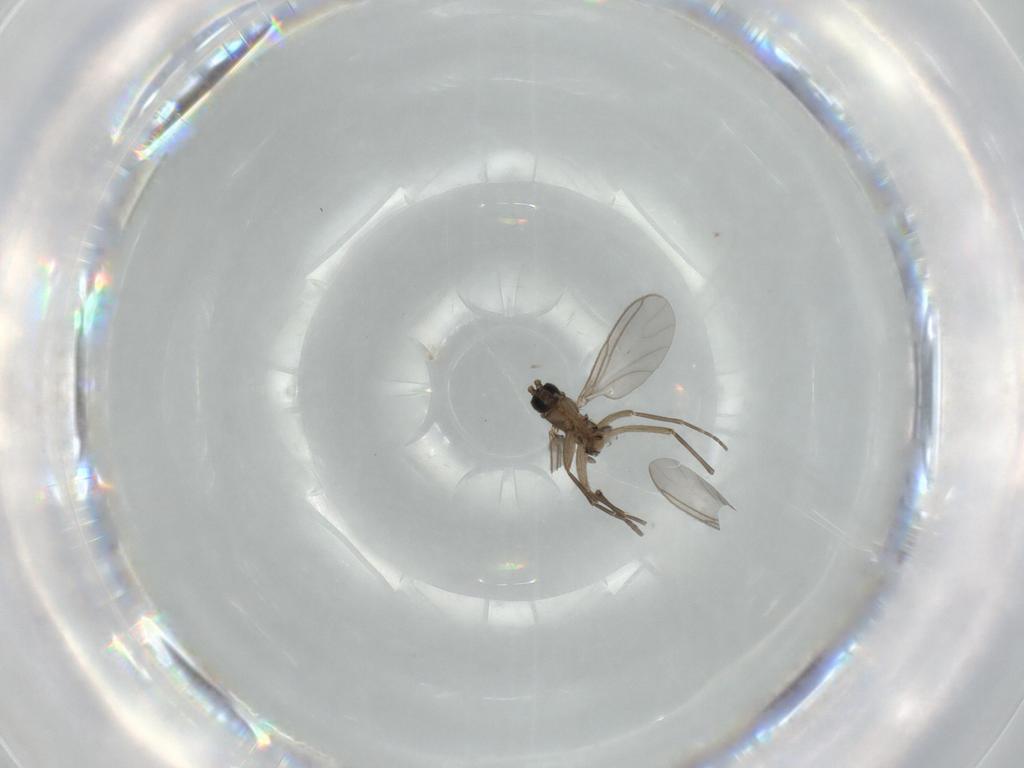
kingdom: Animalia
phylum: Arthropoda
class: Insecta
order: Diptera
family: Sciaridae
